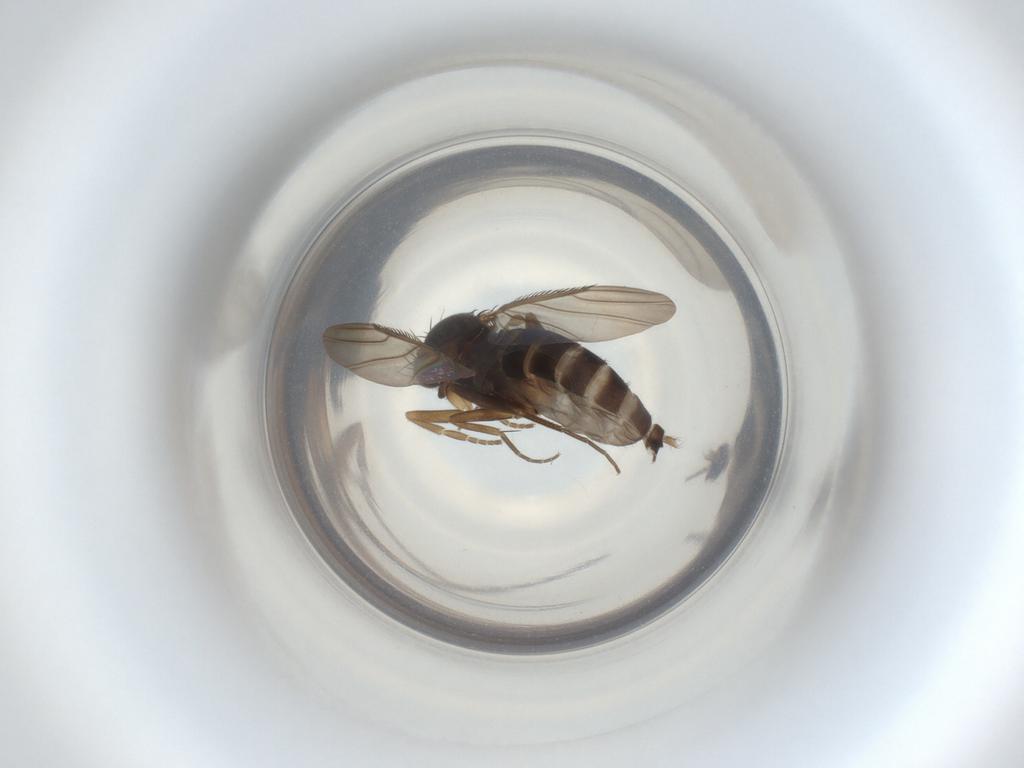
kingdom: Animalia
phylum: Arthropoda
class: Insecta
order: Diptera
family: Phoridae
